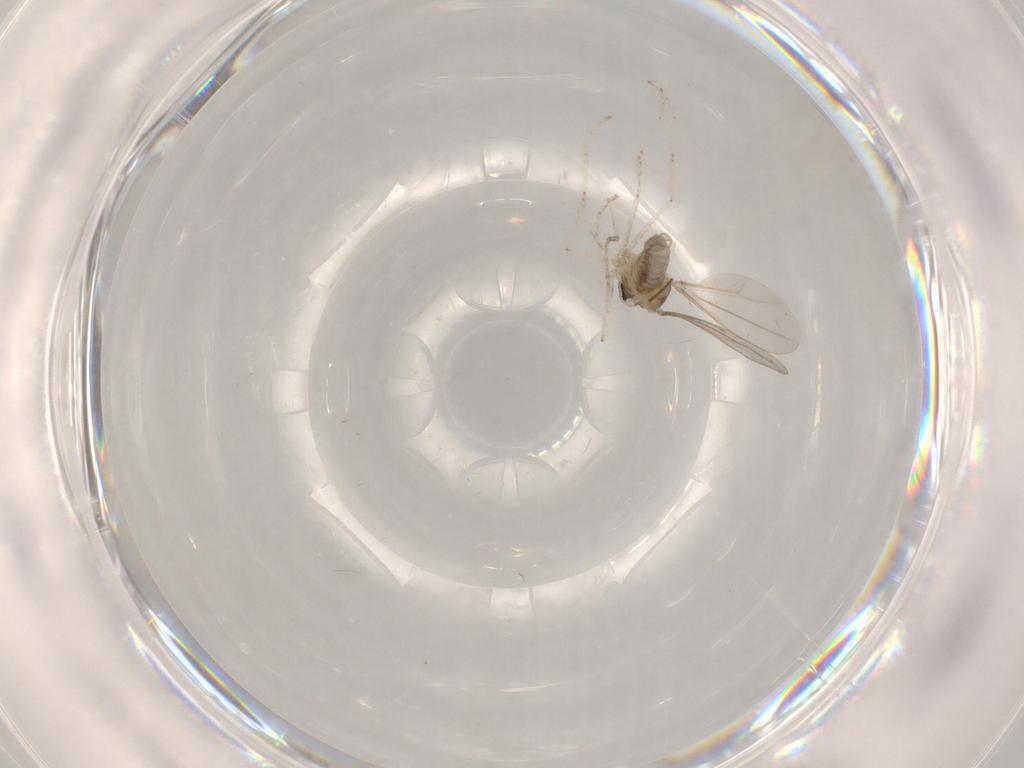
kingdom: Animalia
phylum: Arthropoda
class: Insecta
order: Diptera
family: Cecidomyiidae
